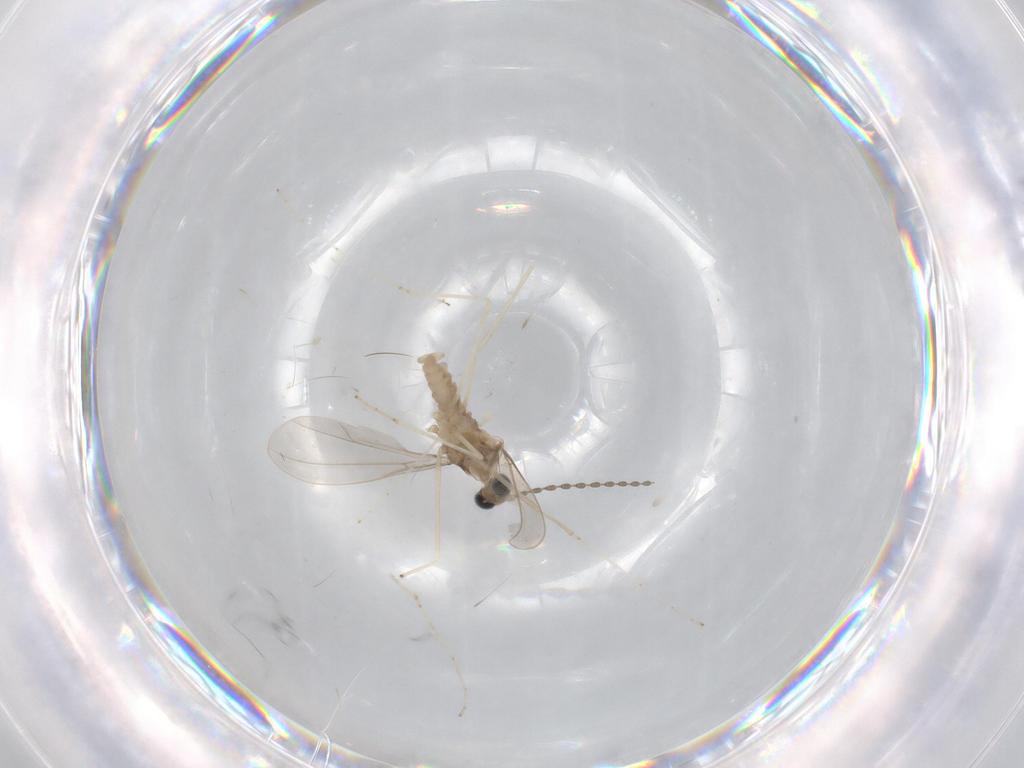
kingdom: Animalia
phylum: Arthropoda
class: Insecta
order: Diptera
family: Cecidomyiidae
